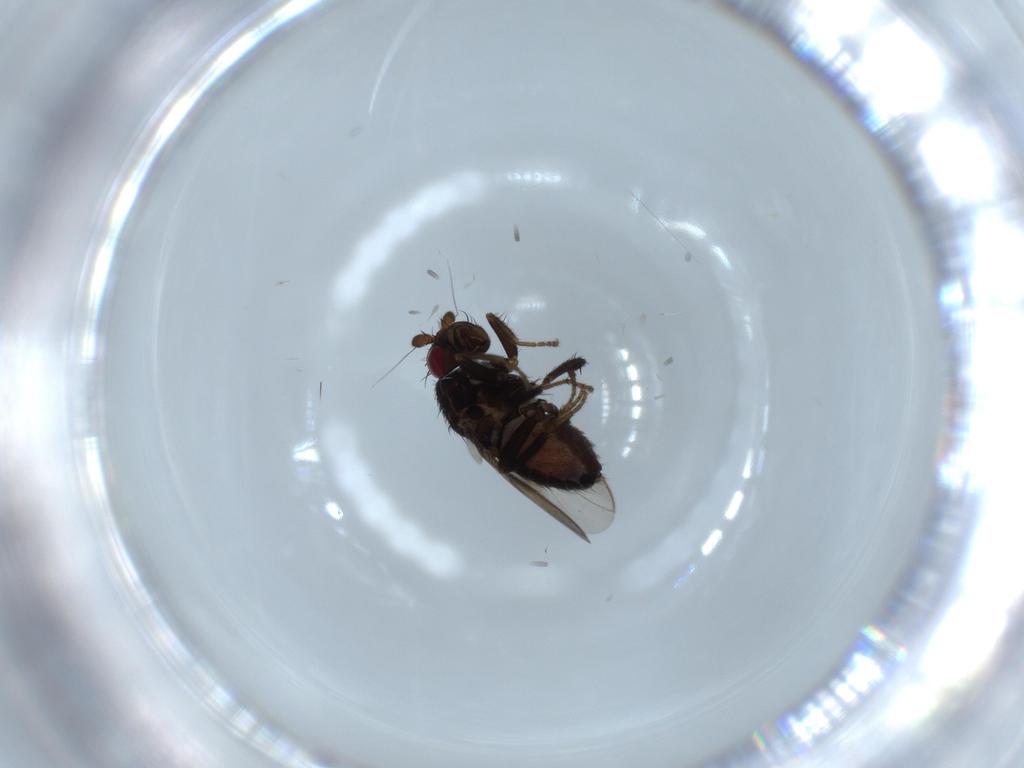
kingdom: Animalia
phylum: Arthropoda
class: Insecta
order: Diptera
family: Sphaeroceridae
